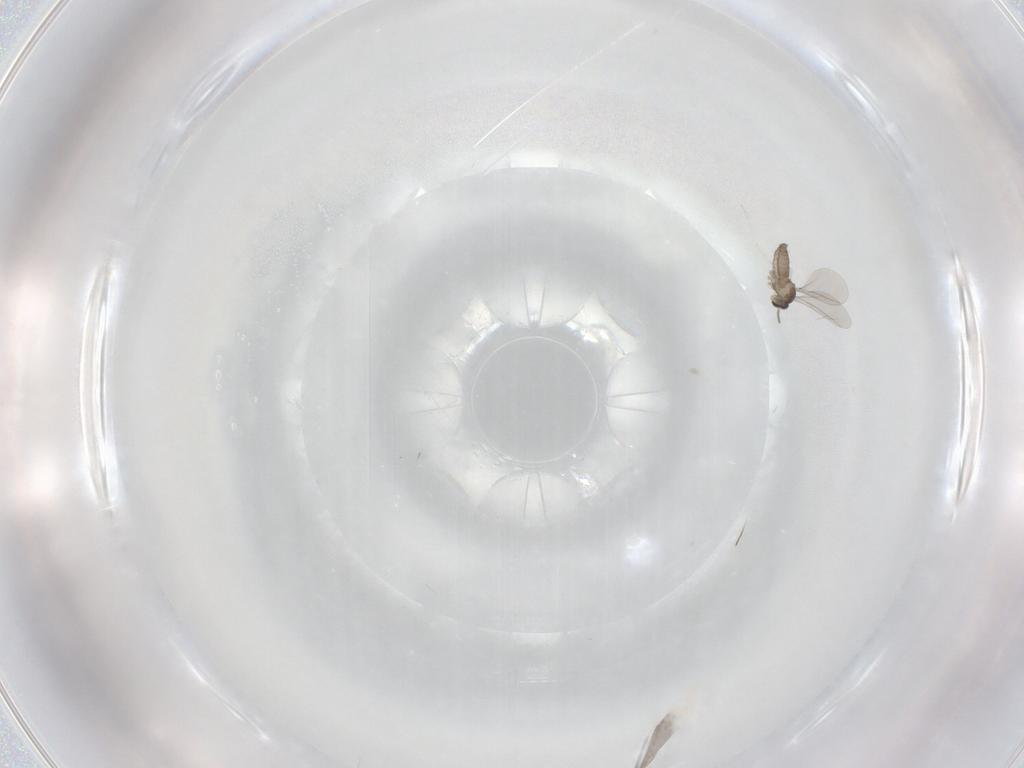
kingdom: Animalia
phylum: Arthropoda
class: Insecta
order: Diptera
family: Cecidomyiidae
